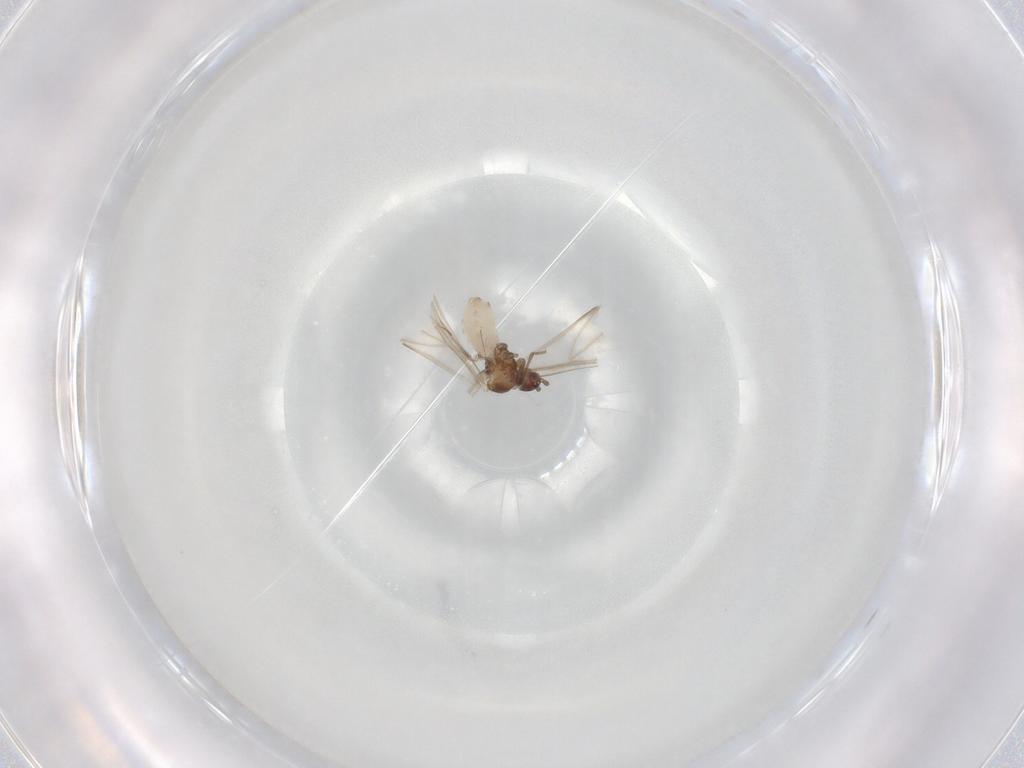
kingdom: Animalia
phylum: Arthropoda
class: Insecta
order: Hemiptera
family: Aphididae
